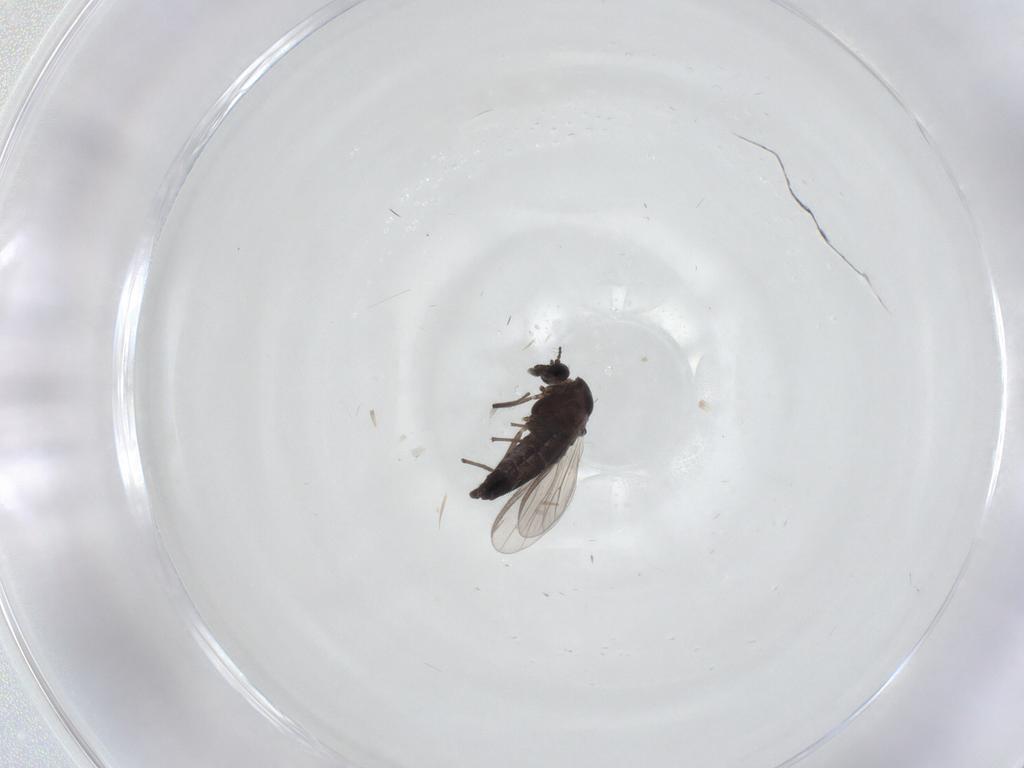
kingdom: Animalia
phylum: Arthropoda
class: Insecta
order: Diptera
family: Chironomidae
